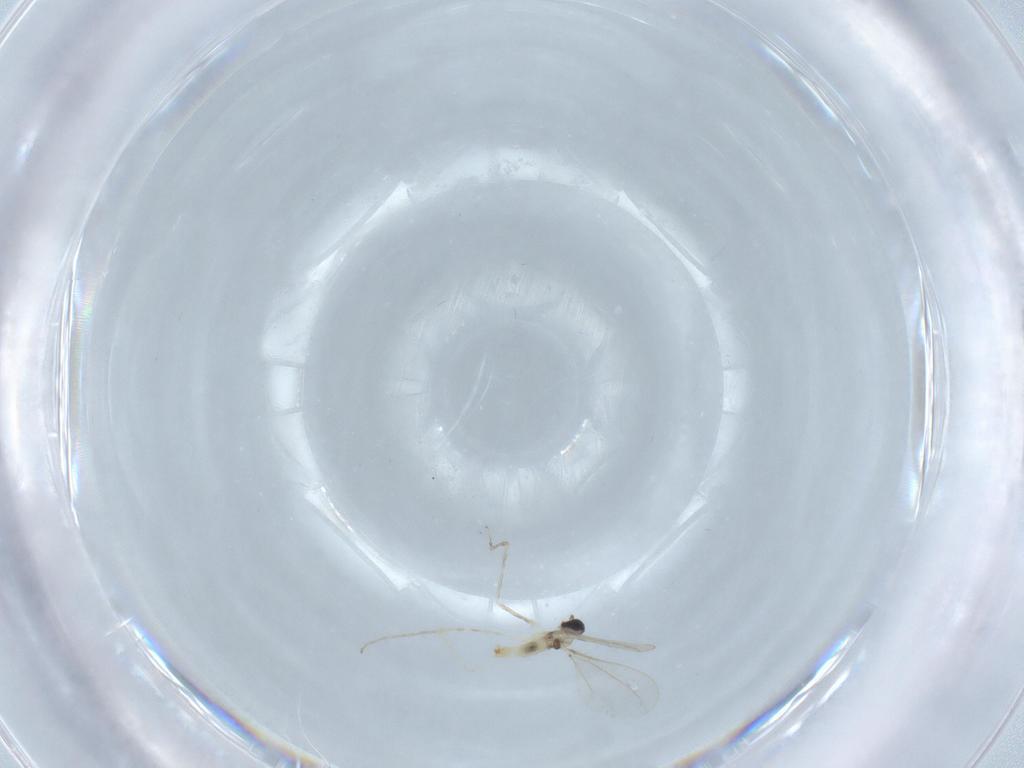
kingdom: Animalia
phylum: Arthropoda
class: Insecta
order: Diptera
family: Cecidomyiidae
